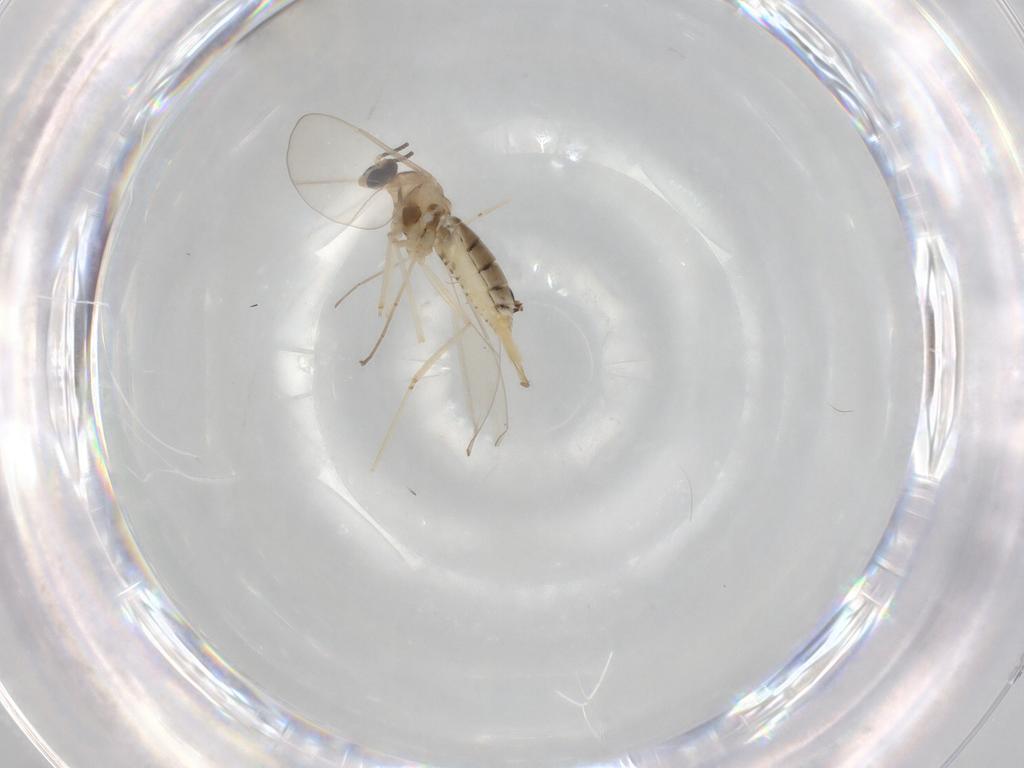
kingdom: Animalia
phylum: Arthropoda
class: Insecta
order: Diptera
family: Cecidomyiidae
